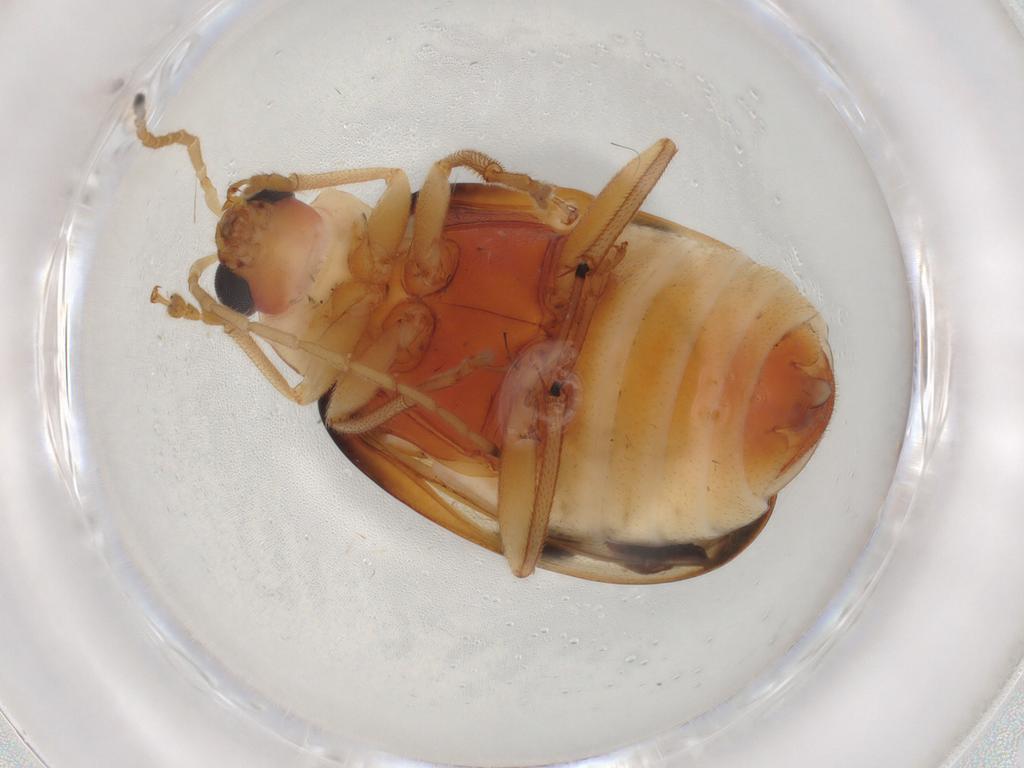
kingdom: Animalia
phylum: Arthropoda
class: Insecta
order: Coleoptera
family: Chrysomelidae
